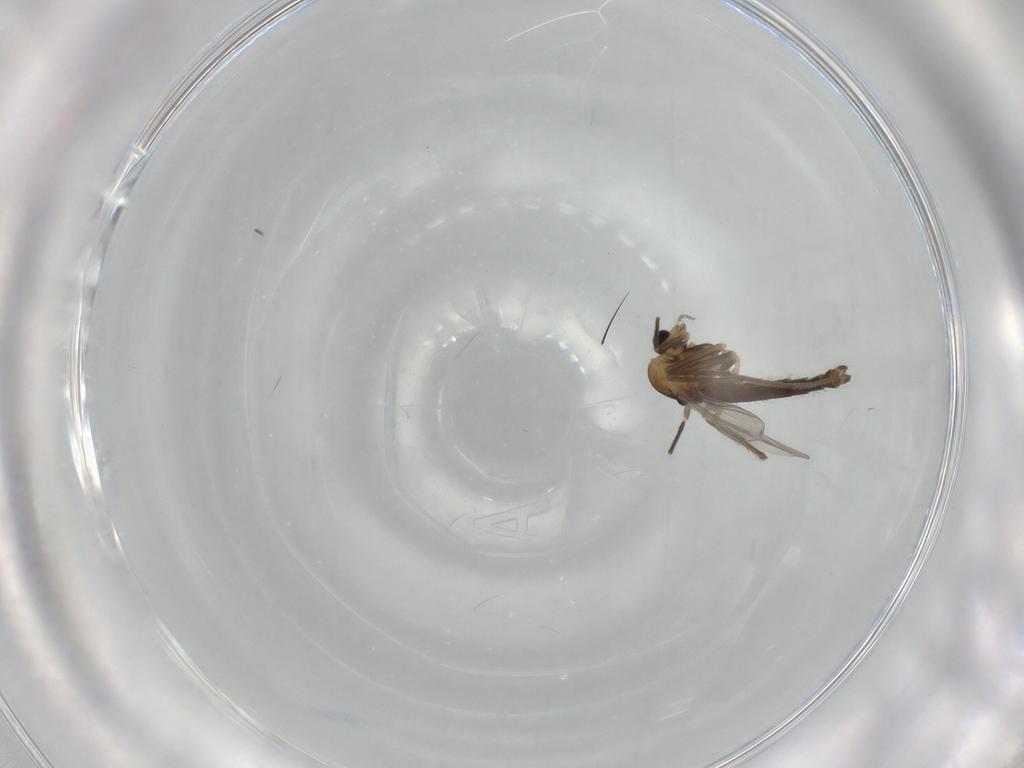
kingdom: Animalia
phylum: Arthropoda
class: Insecta
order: Diptera
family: Chironomidae
